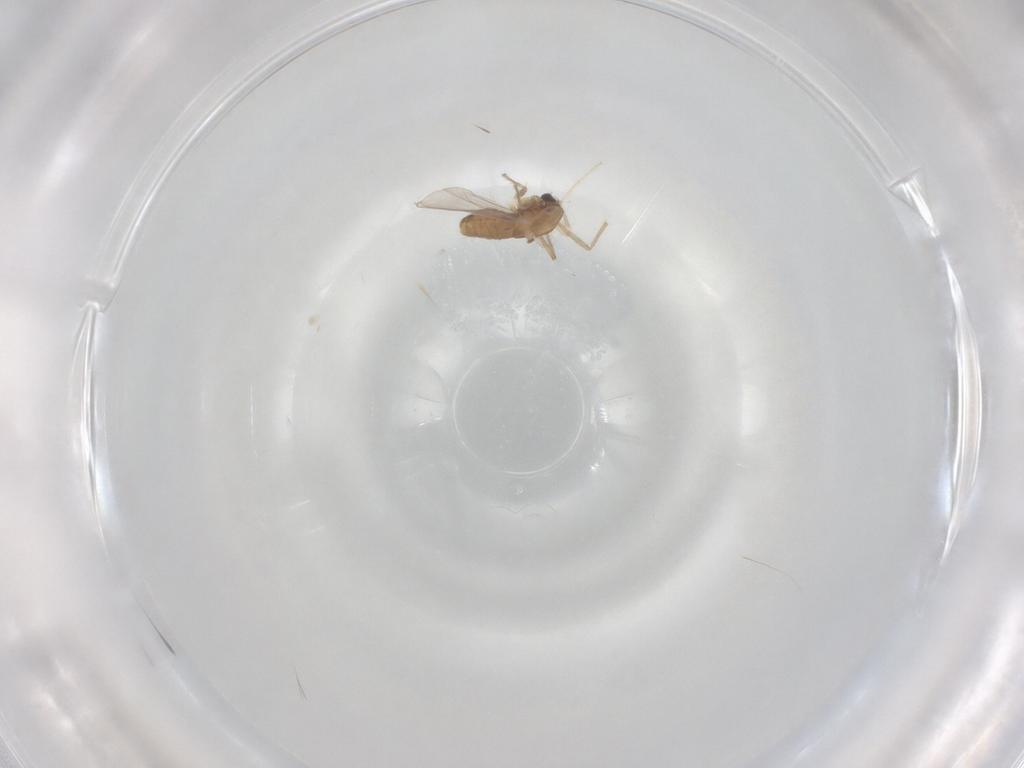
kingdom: Animalia
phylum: Arthropoda
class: Insecta
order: Diptera
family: Chironomidae
